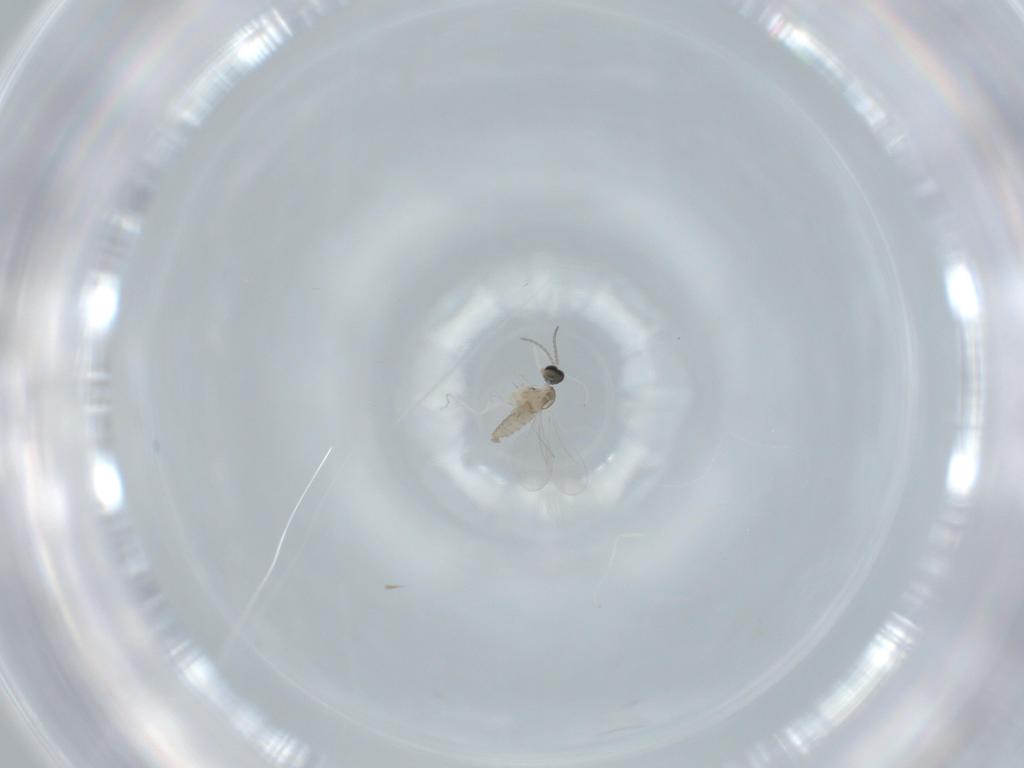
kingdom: Animalia
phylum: Arthropoda
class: Insecta
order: Diptera
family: Cecidomyiidae
